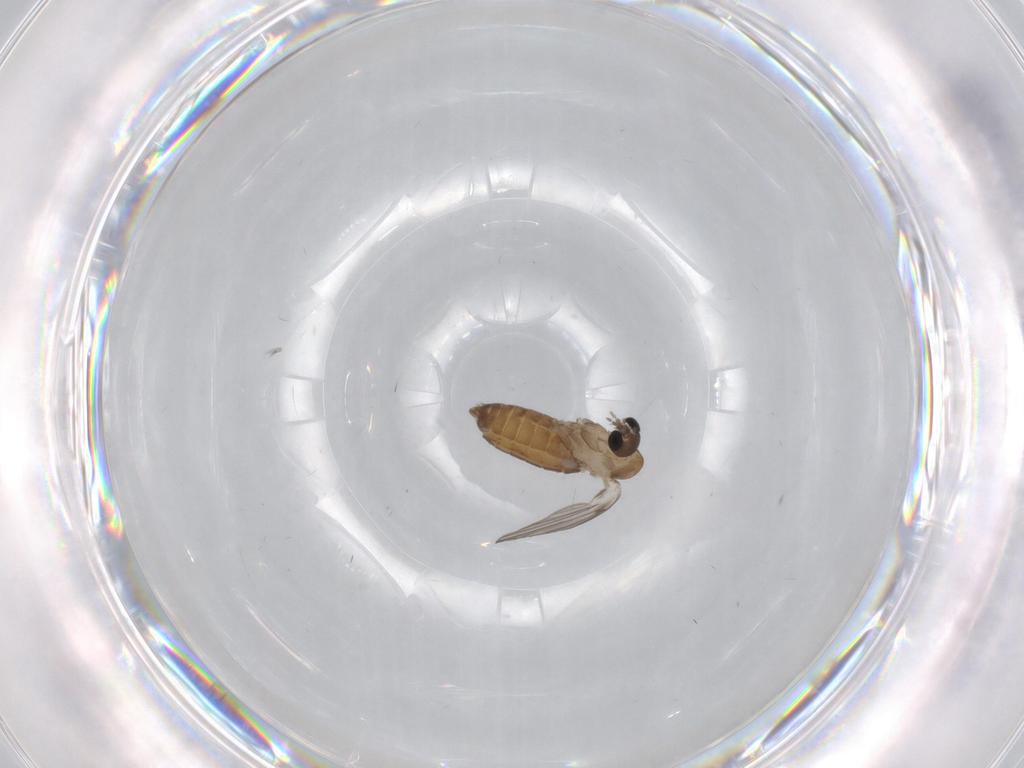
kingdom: Animalia
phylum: Arthropoda
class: Insecta
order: Diptera
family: Psychodidae
